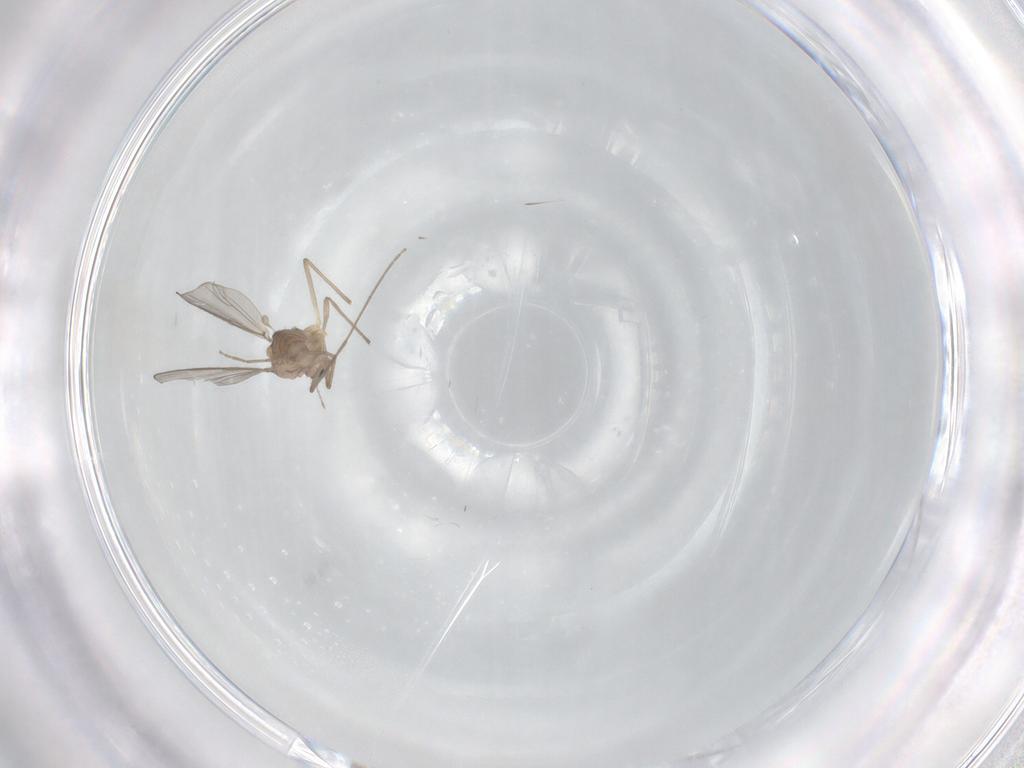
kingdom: Animalia
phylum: Arthropoda
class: Insecta
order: Diptera
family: Chironomidae
